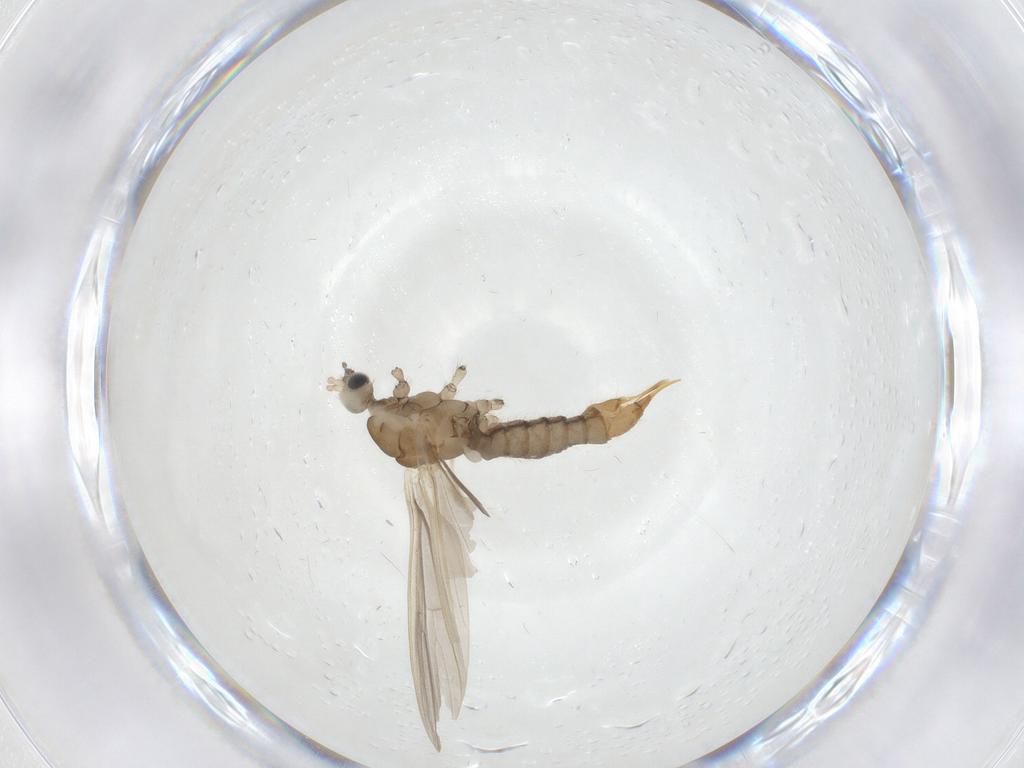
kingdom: Animalia
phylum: Arthropoda
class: Insecta
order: Diptera
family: Limoniidae
